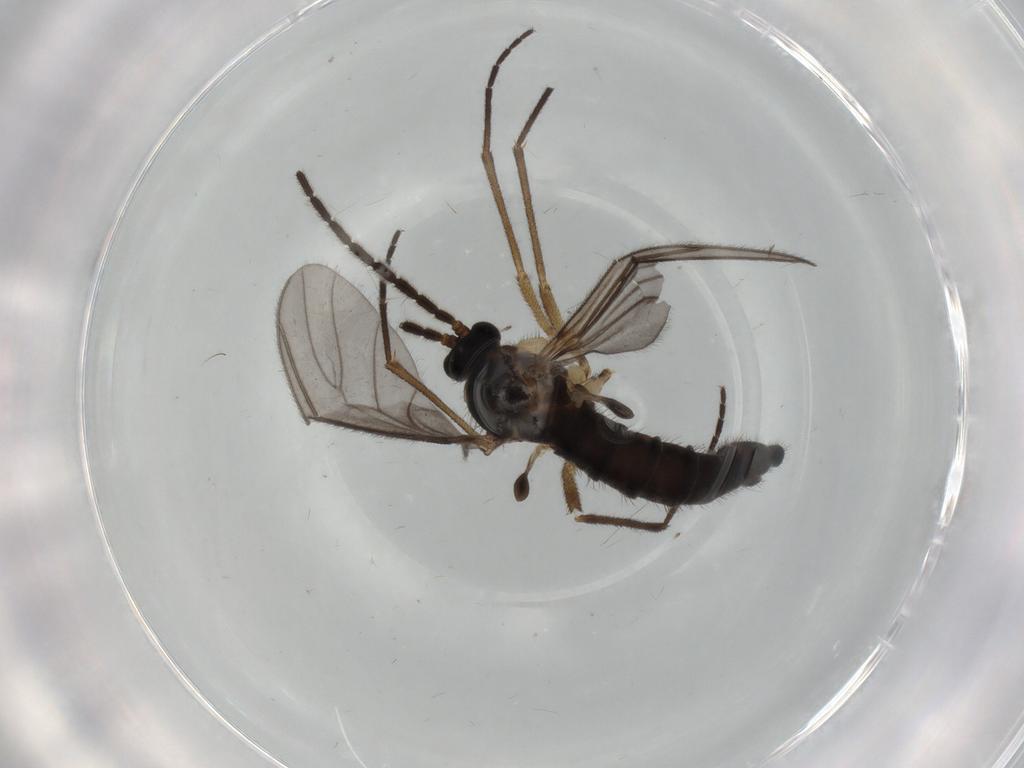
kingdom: Animalia
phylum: Arthropoda
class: Insecta
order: Diptera
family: Sciaridae
